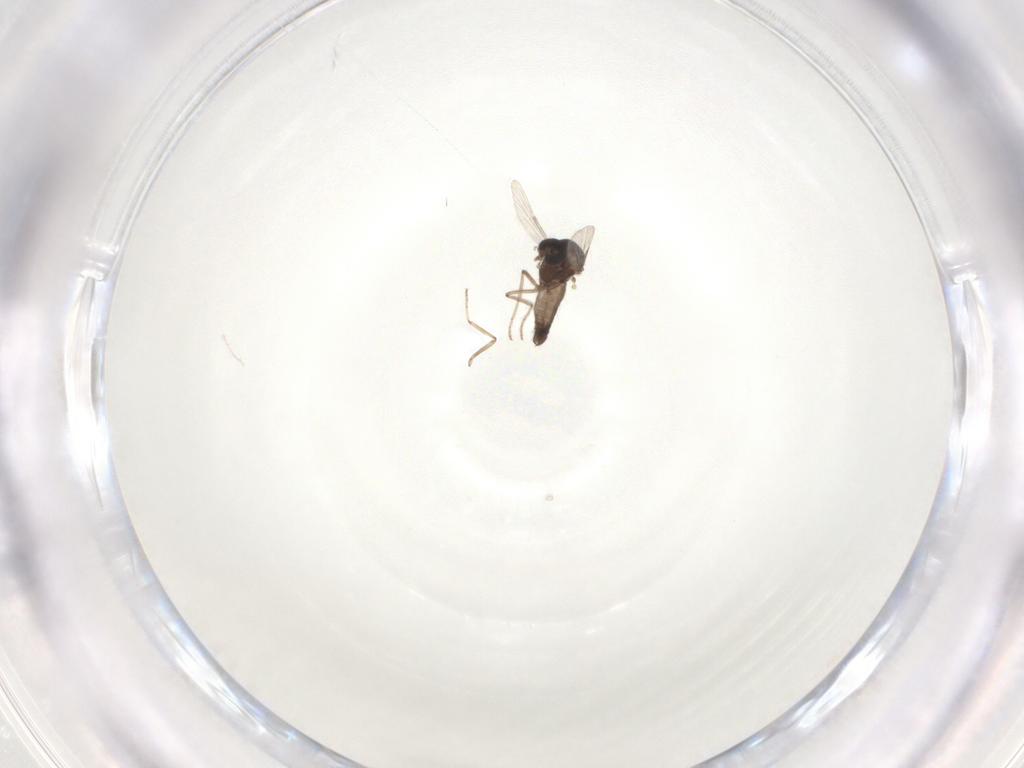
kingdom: Animalia
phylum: Arthropoda
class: Insecta
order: Diptera
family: Ceratopogonidae
